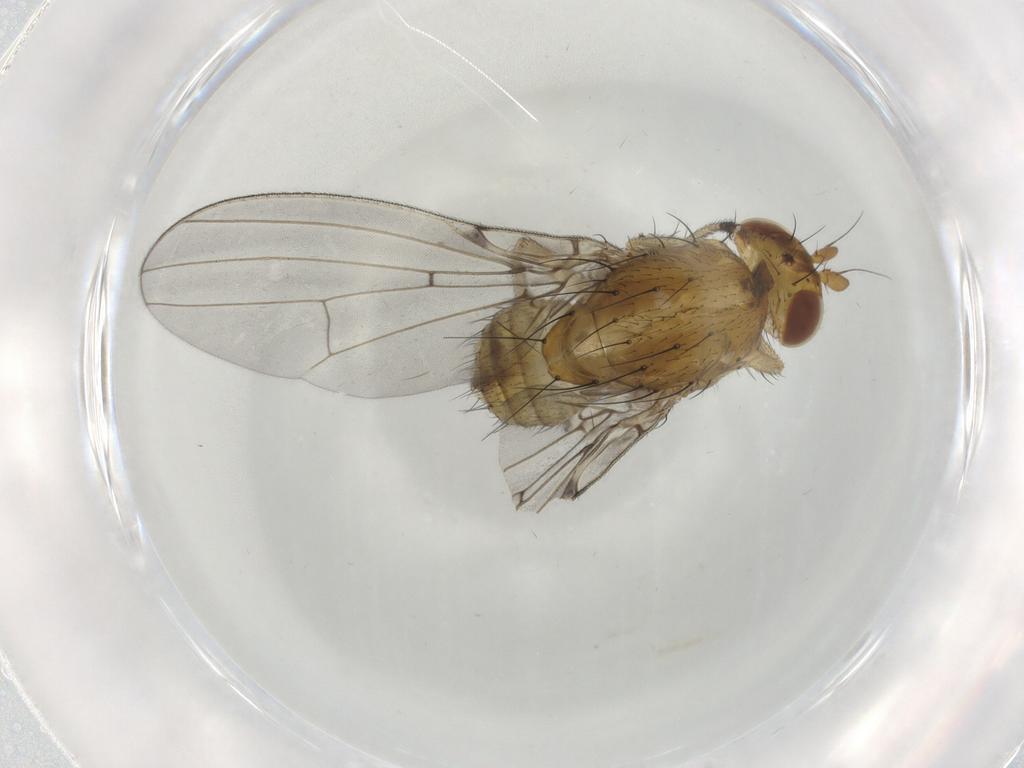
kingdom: Animalia
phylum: Arthropoda
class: Insecta
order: Diptera
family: Sciaridae
